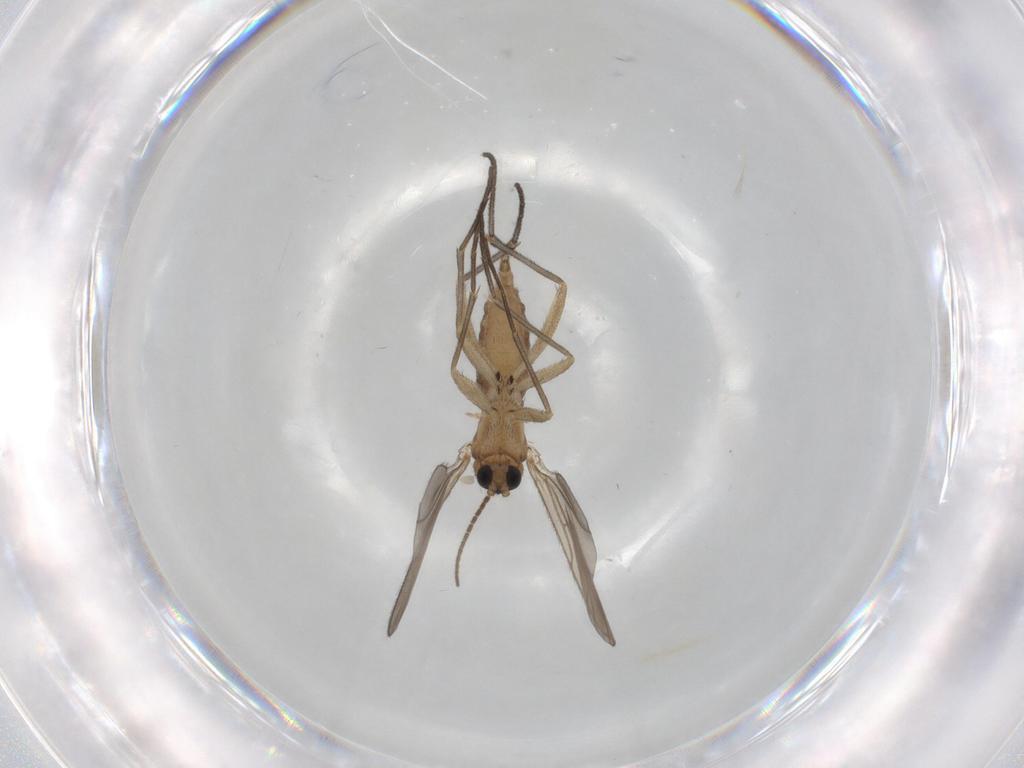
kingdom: Animalia
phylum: Arthropoda
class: Insecta
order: Diptera
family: Sciaridae
